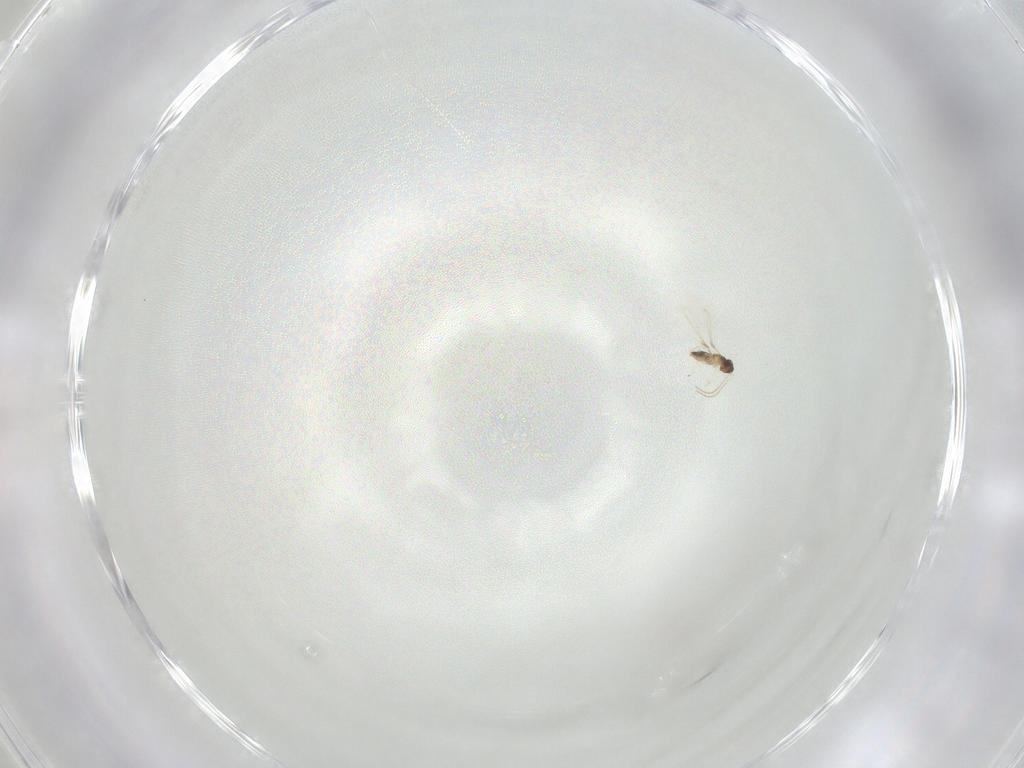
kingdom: Animalia
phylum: Arthropoda
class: Insecta
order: Hymenoptera
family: Mymaridae
